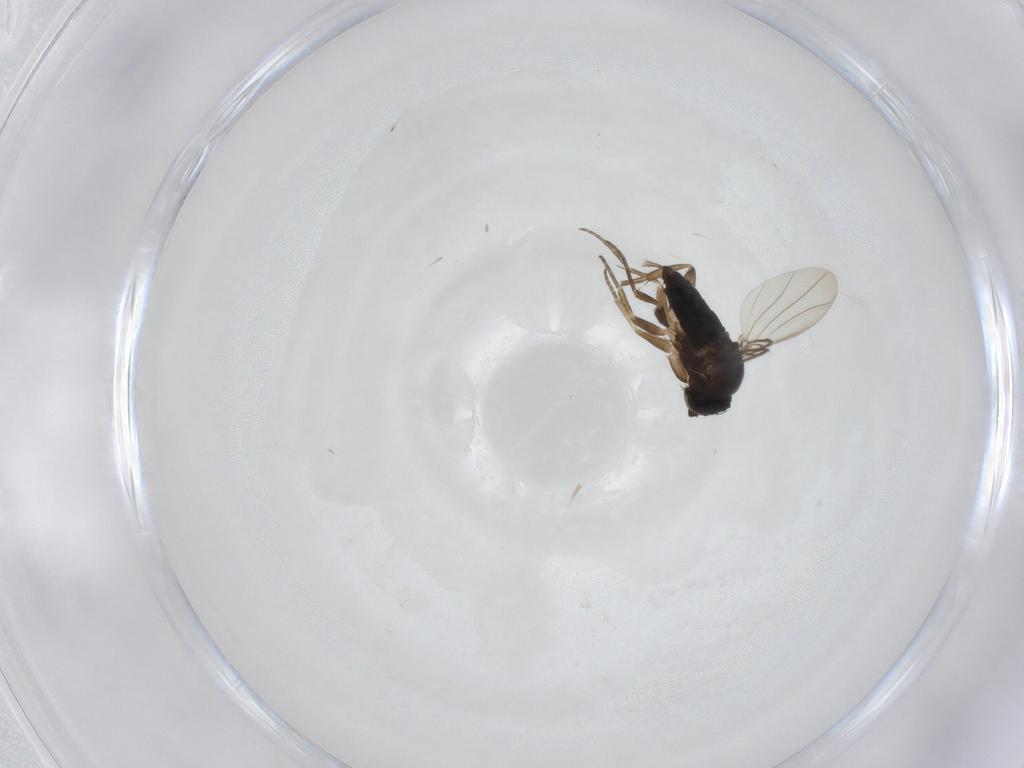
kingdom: Animalia
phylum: Arthropoda
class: Insecta
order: Diptera
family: Phoridae
